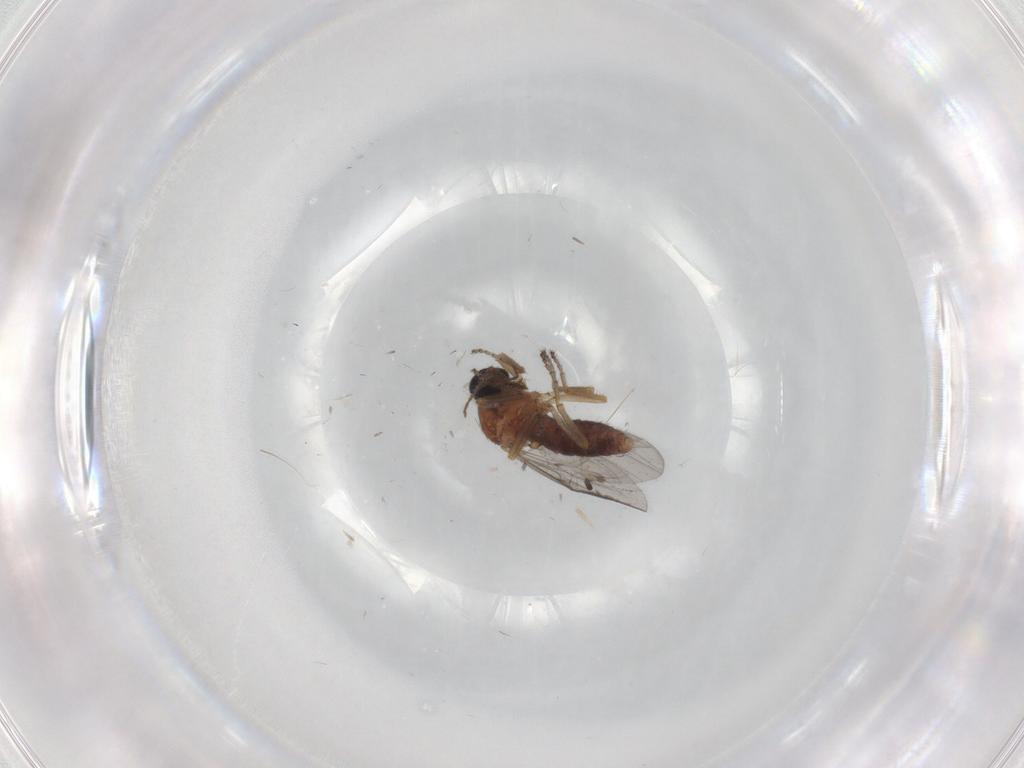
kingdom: Animalia
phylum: Arthropoda
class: Insecta
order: Diptera
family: Ceratopogonidae
